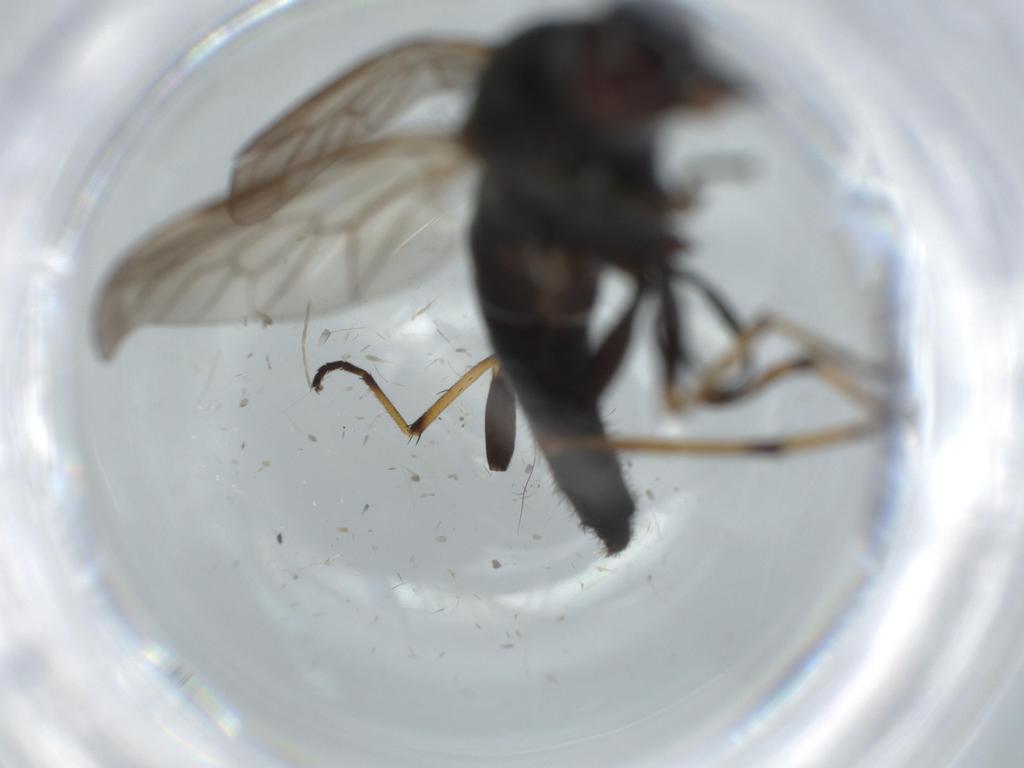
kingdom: Animalia
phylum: Arthropoda
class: Insecta
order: Diptera
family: Therevidae
